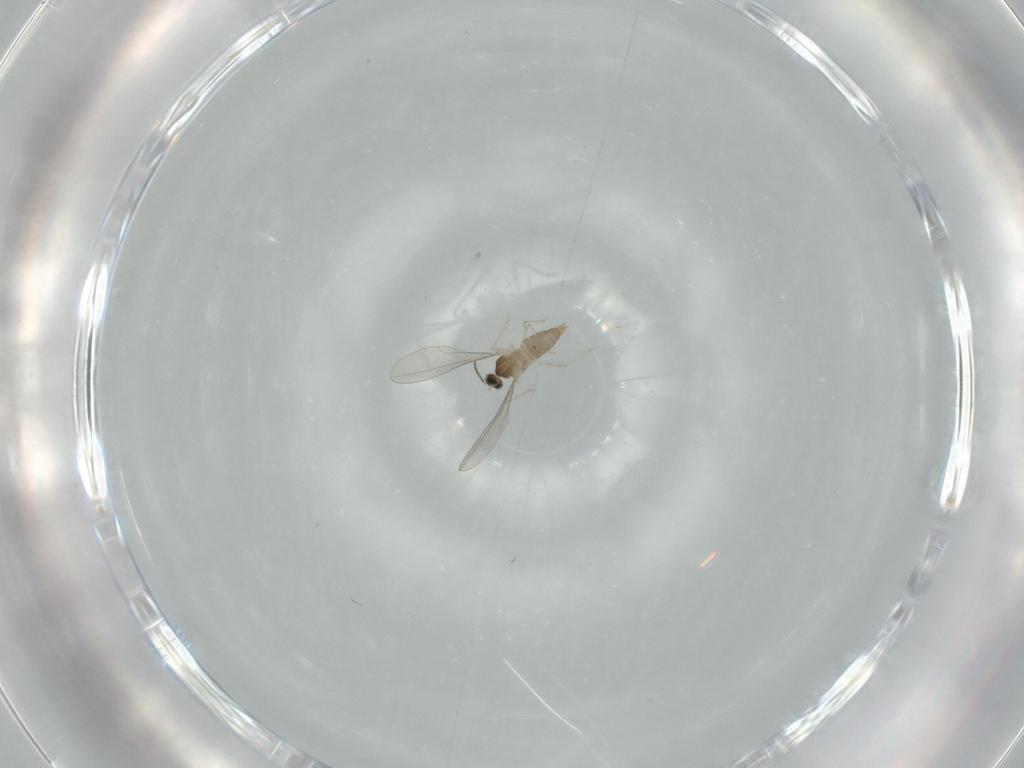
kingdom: Animalia
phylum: Arthropoda
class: Insecta
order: Diptera
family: Cecidomyiidae
